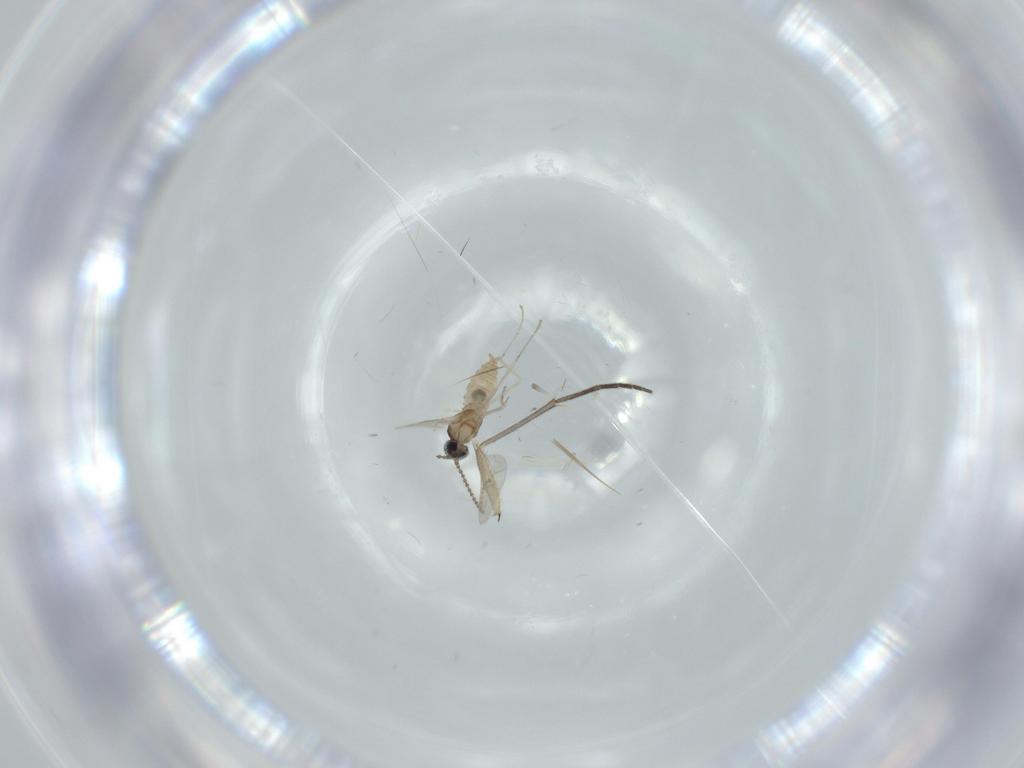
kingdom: Animalia
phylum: Arthropoda
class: Insecta
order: Diptera
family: Cecidomyiidae
